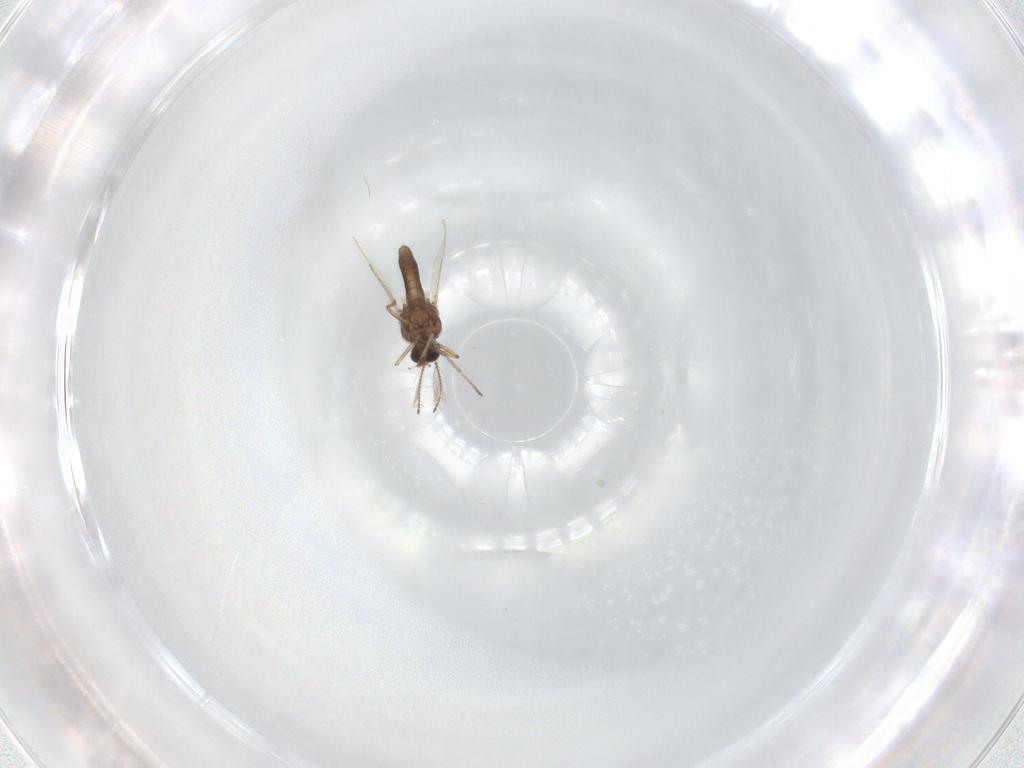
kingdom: Animalia
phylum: Arthropoda
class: Insecta
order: Diptera
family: Ceratopogonidae
